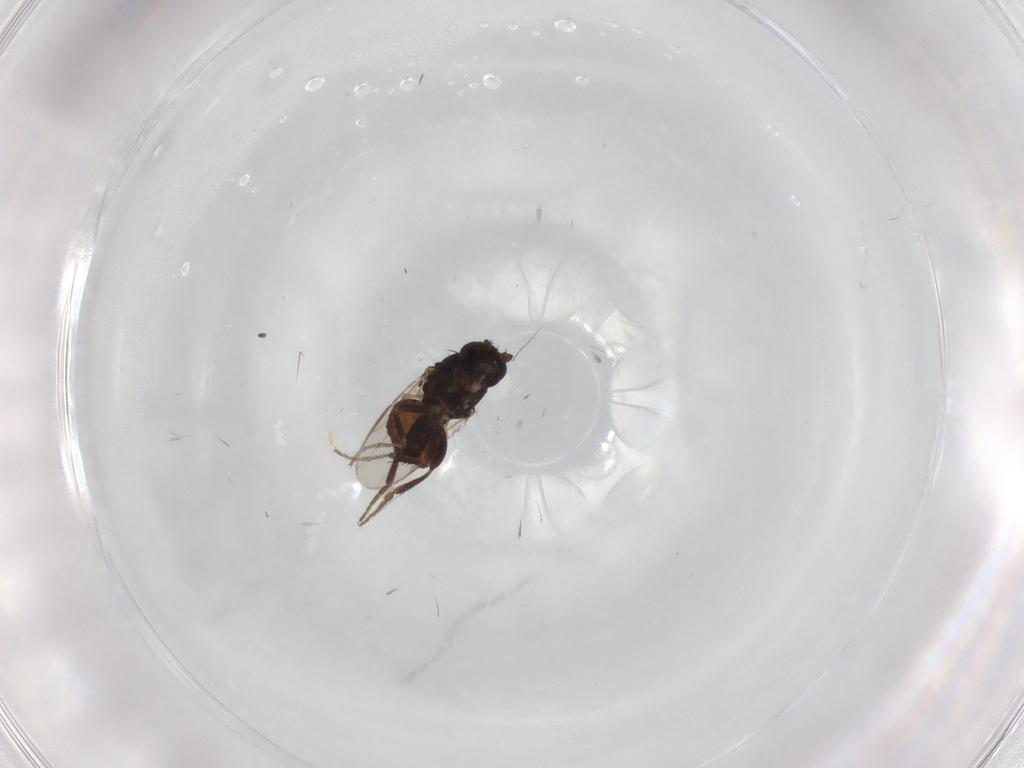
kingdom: Animalia
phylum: Arthropoda
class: Insecta
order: Diptera
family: Sphaeroceridae
